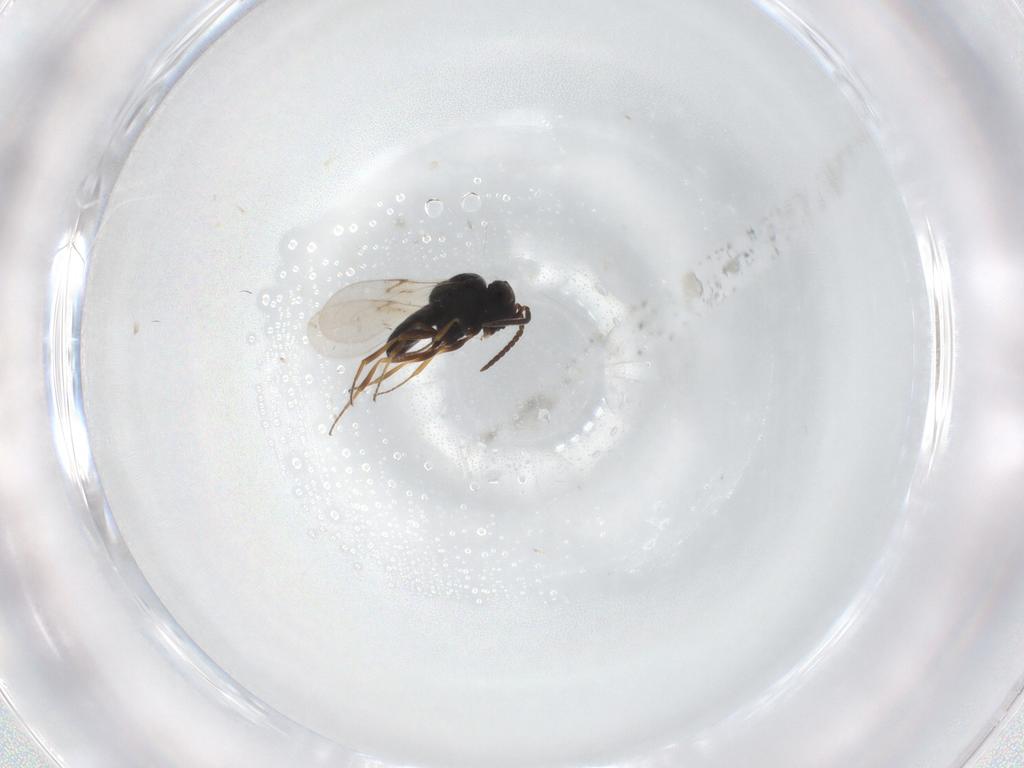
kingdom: Animalia
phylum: Arthropoda
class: Insecta
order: Hymenoptera
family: Scelionidae
